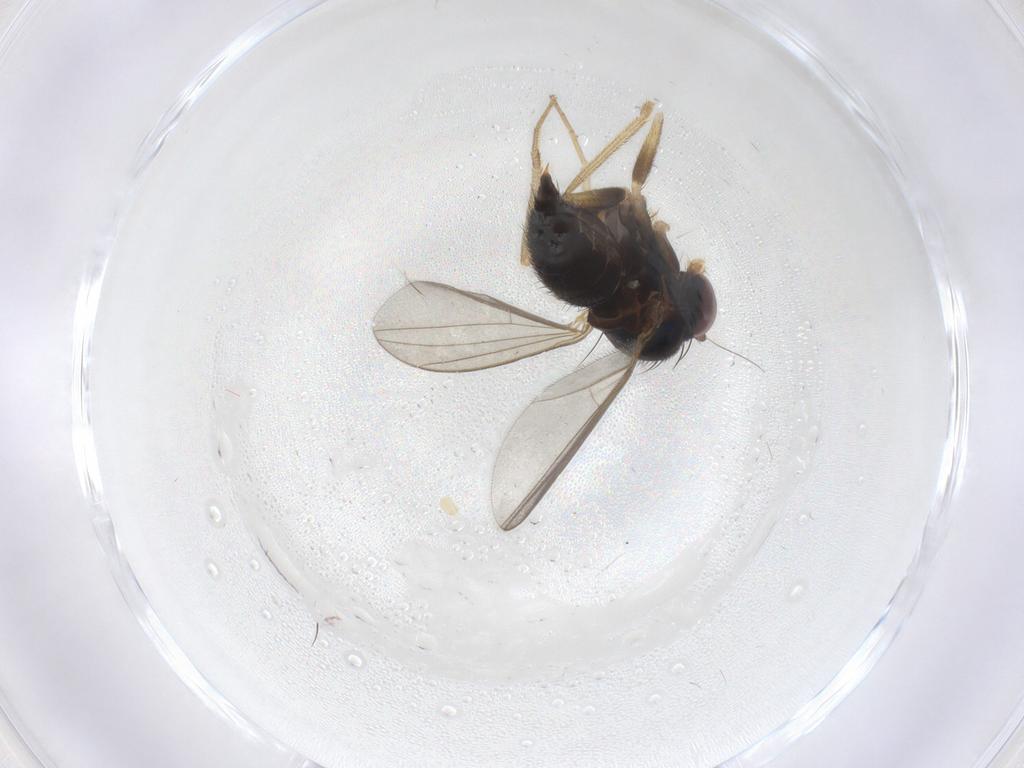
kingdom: Animalia
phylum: Arthropoda
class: Insecta
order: Diptera
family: Dolichopodidae
